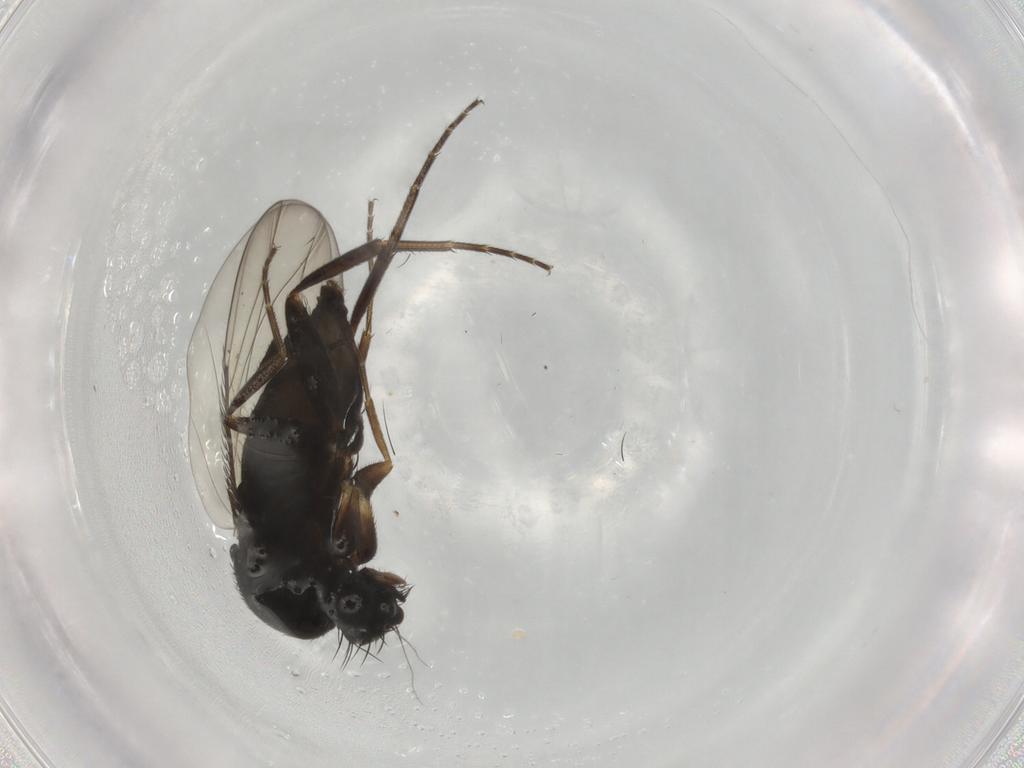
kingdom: Animalia
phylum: Arthropoda
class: Insecta
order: Diptera
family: Phoridae
